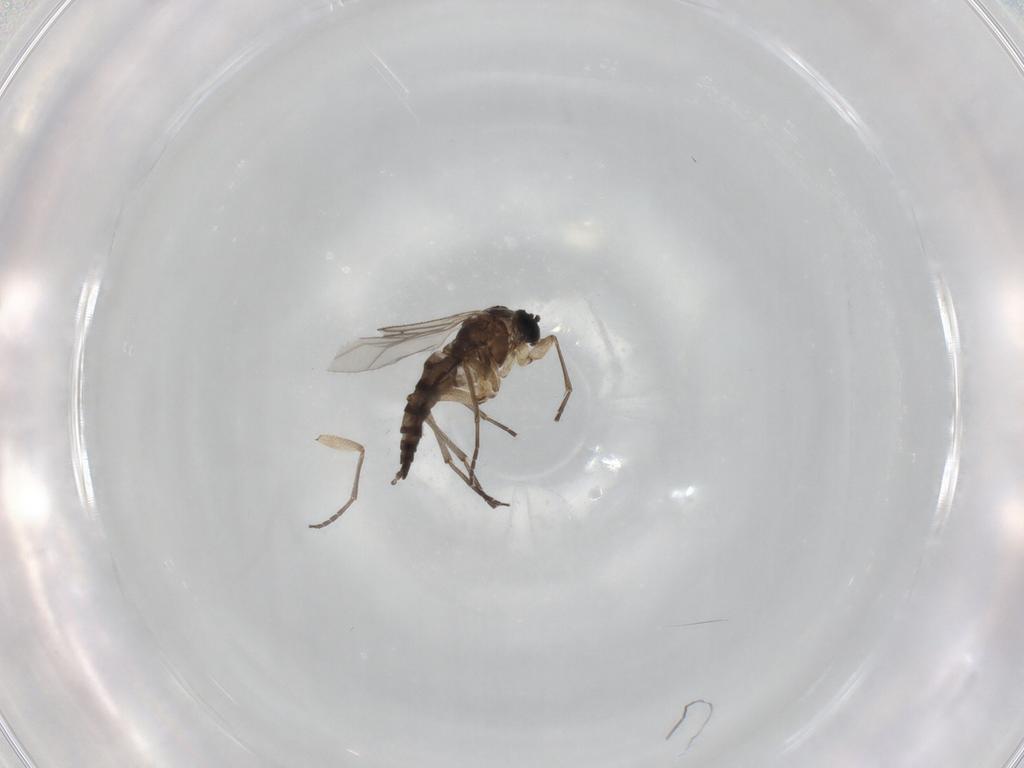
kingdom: Animalia
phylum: Arthropoda
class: Insecta
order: Diptera
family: Sciaridae
